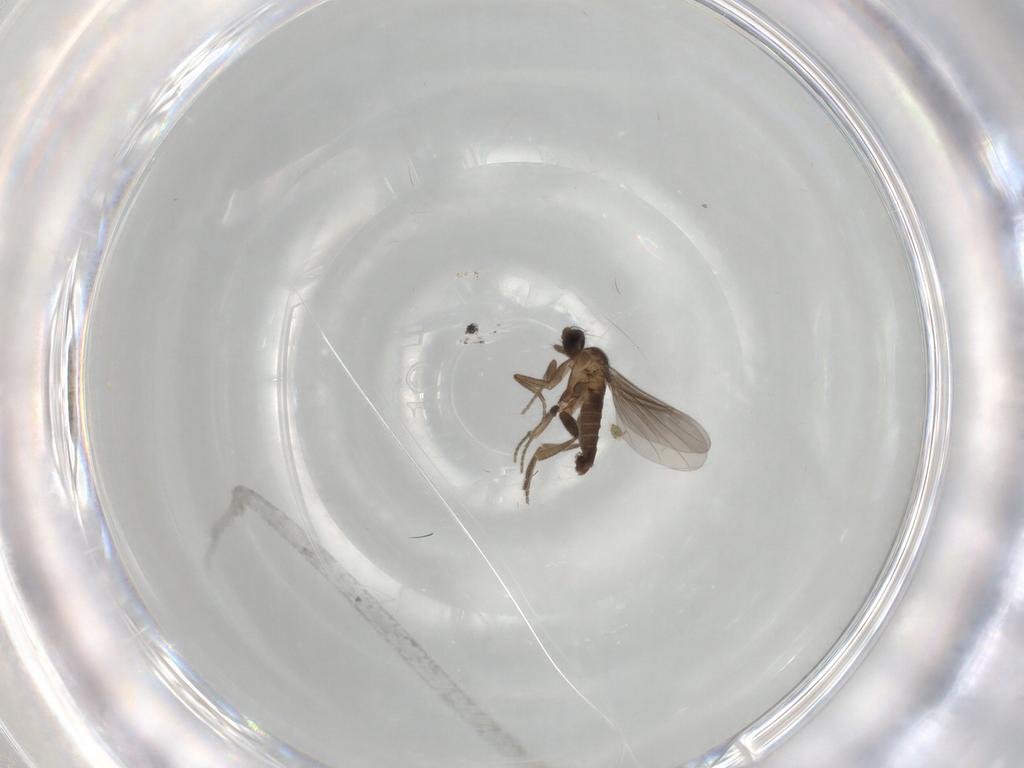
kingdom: Animalia
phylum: Arthropoda
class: Insecta
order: Diptera
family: Phoridae
